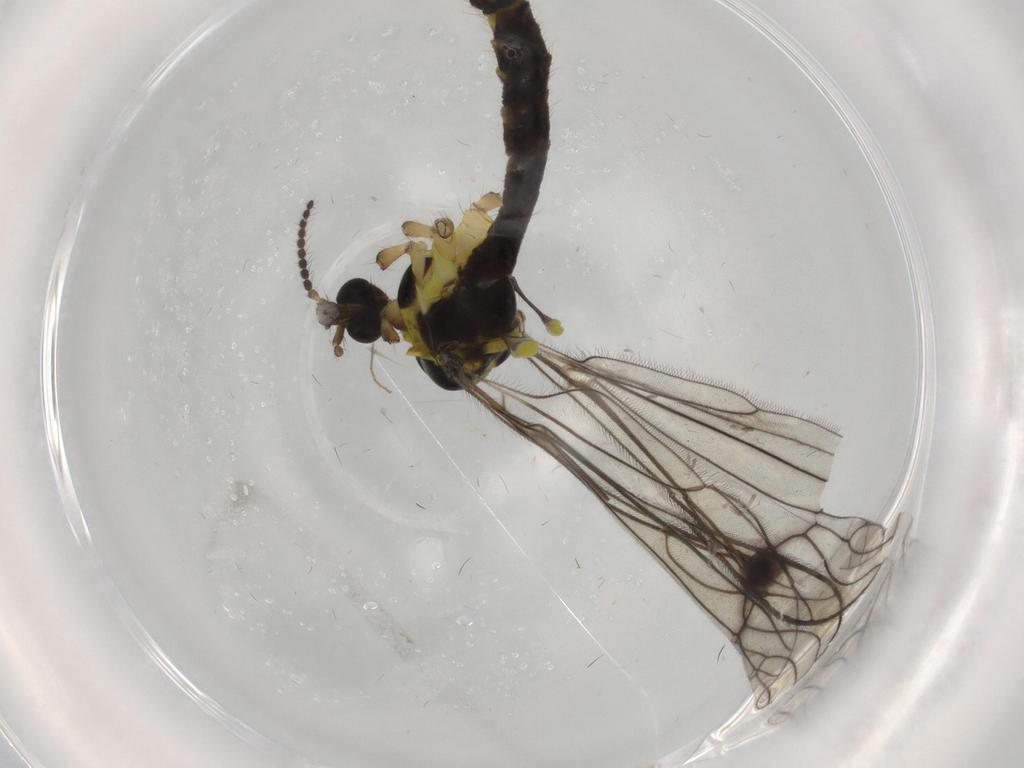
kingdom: Animalia
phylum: Arthropoda
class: Insecta
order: Diptera
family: Limoniidae
